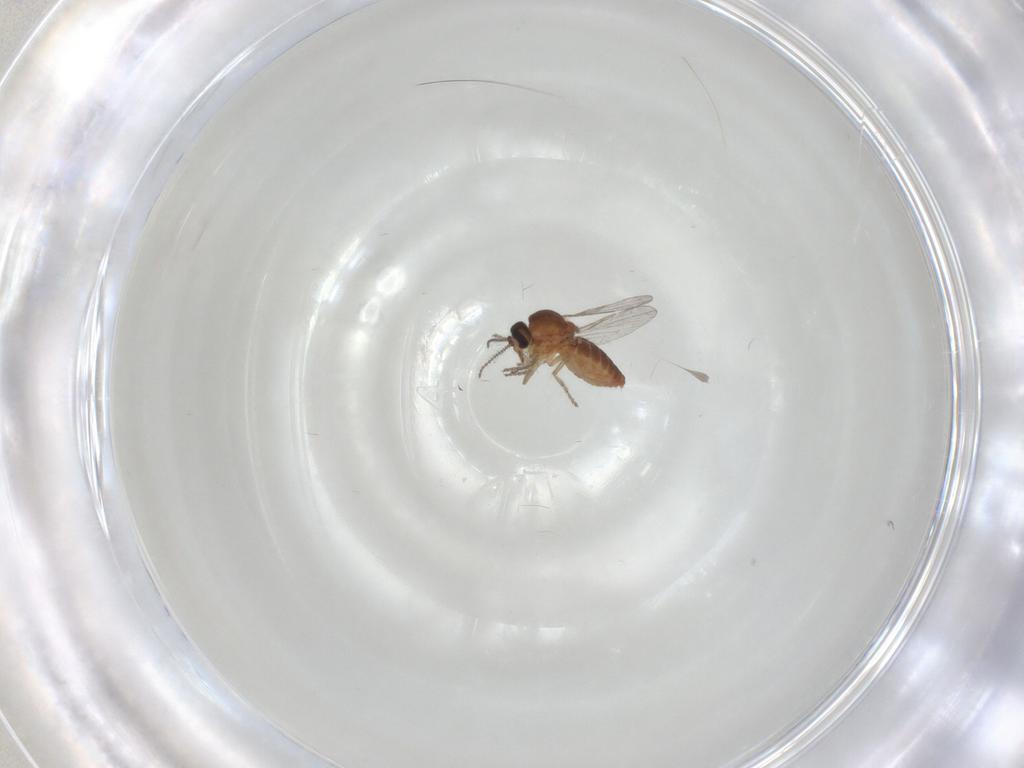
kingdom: Animalia
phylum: Arthropoda
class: Insecta
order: Diptera
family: Ceratopogonidae
